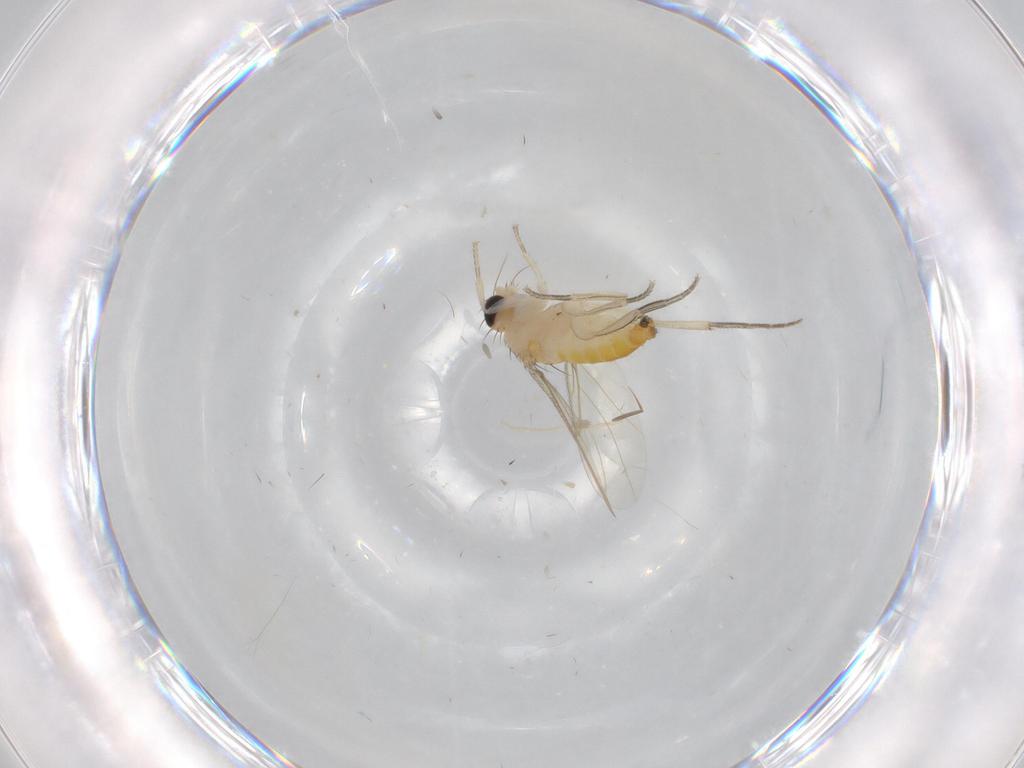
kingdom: Animalia
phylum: Arthropoda
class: Insecta
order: Diptera
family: Phoridae
